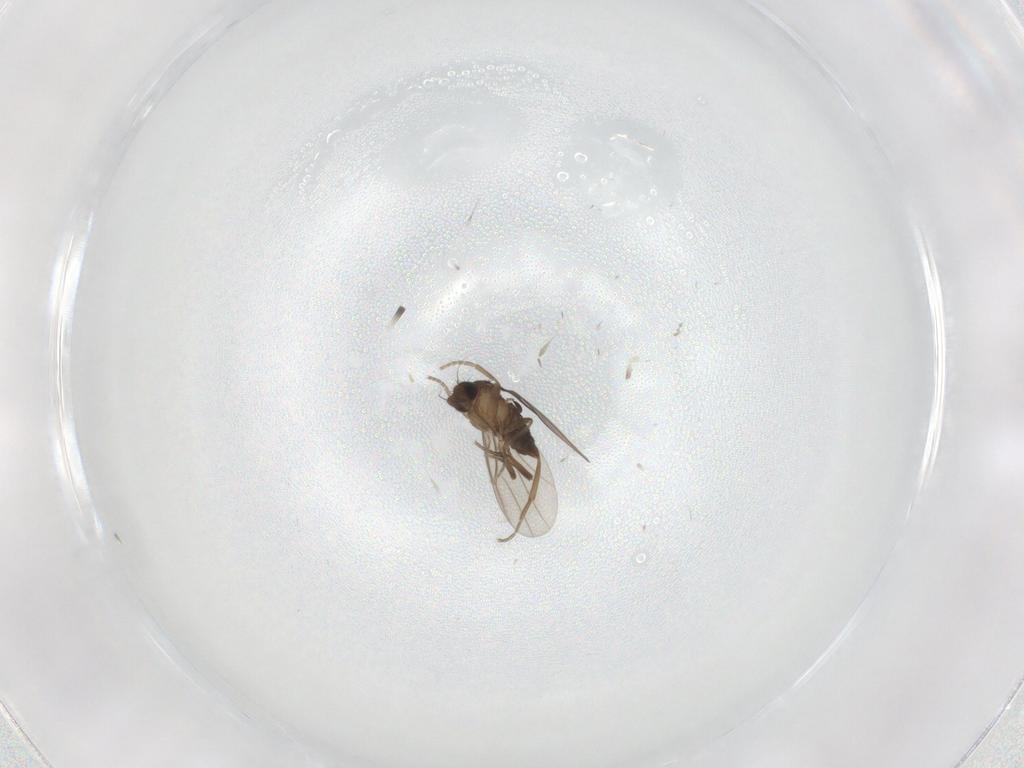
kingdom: Animalia
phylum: Arthropoda
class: Insecta
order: Diptera
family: Cecidomyiidae
